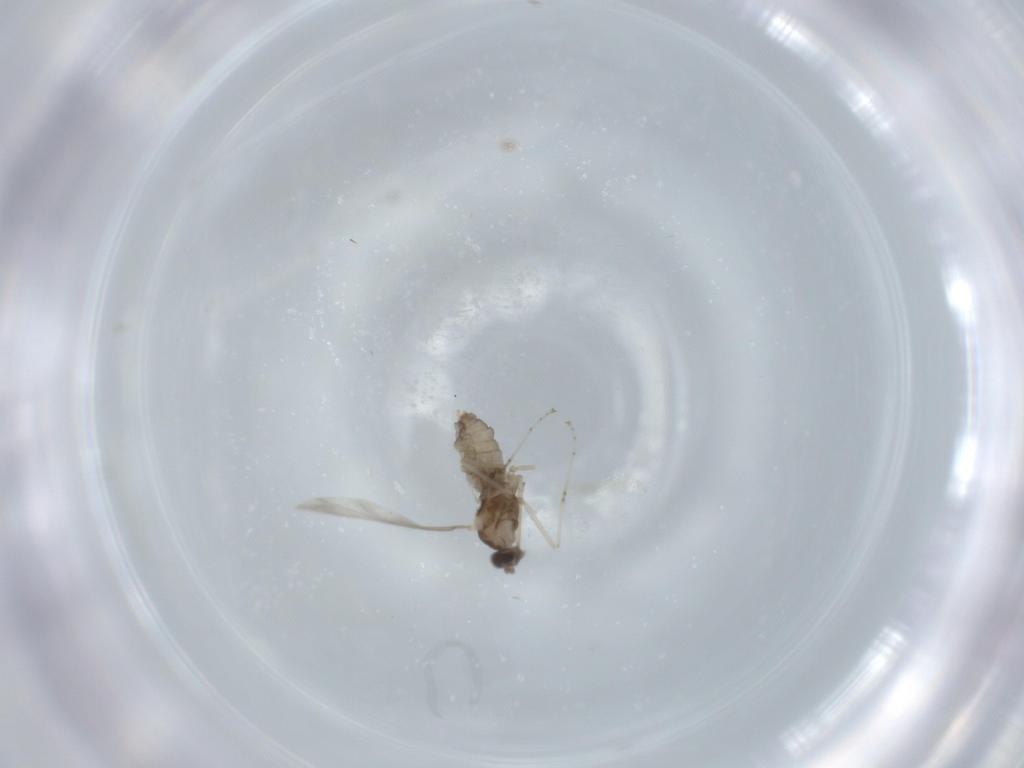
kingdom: Animalia
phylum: Arthropoda
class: Insecta
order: Diptera
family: Cecidomyiidae
